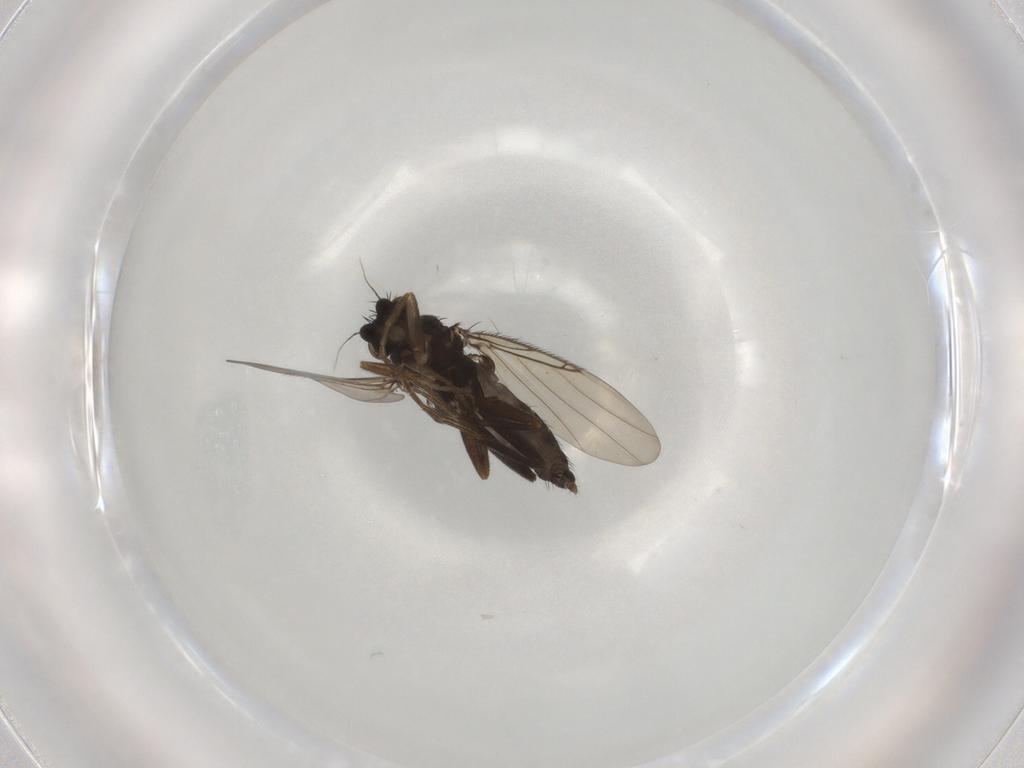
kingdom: Animalia
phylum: Arthropoda
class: Insecta
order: Diptera
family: Phoridae
